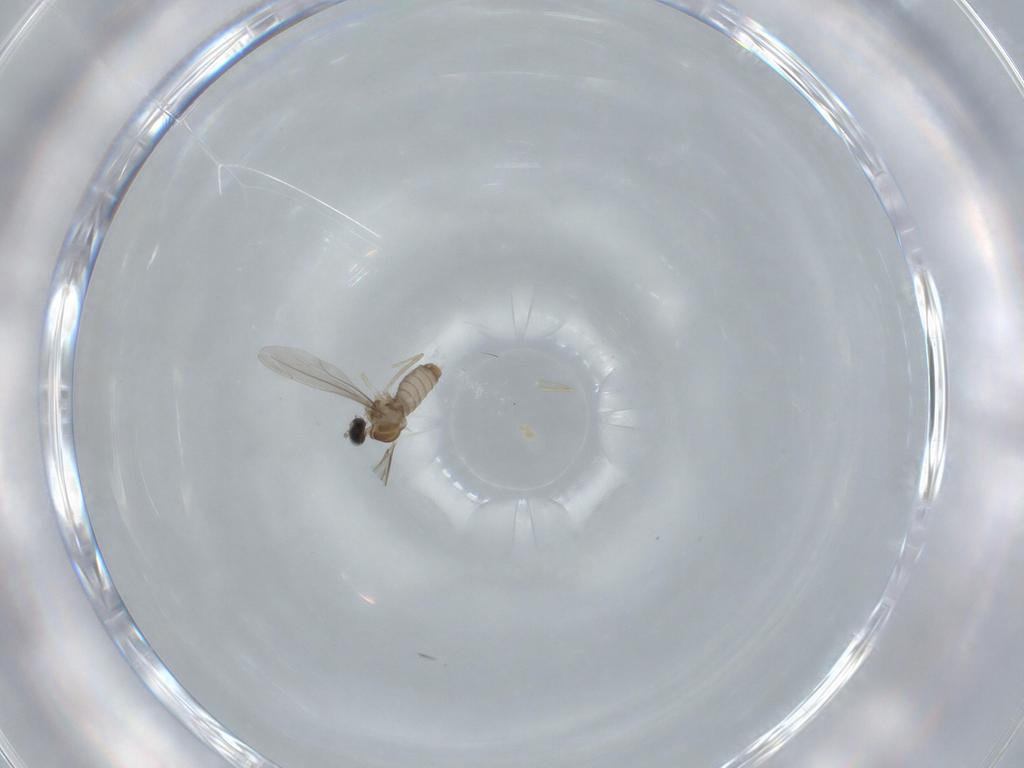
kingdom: Animalia
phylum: Arthropoda
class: Insecta
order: Diptera
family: Cecidomyiidae
